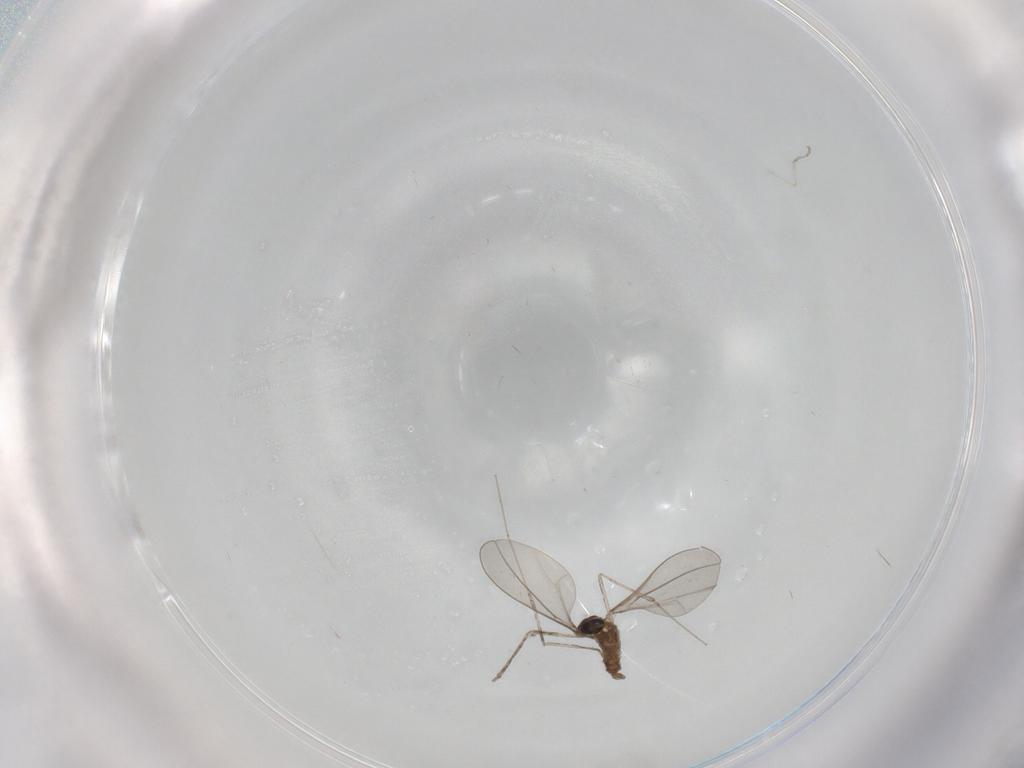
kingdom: Animalia
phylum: Arthropoda
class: Insecta
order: Diptera
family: Cecidomyiidae
